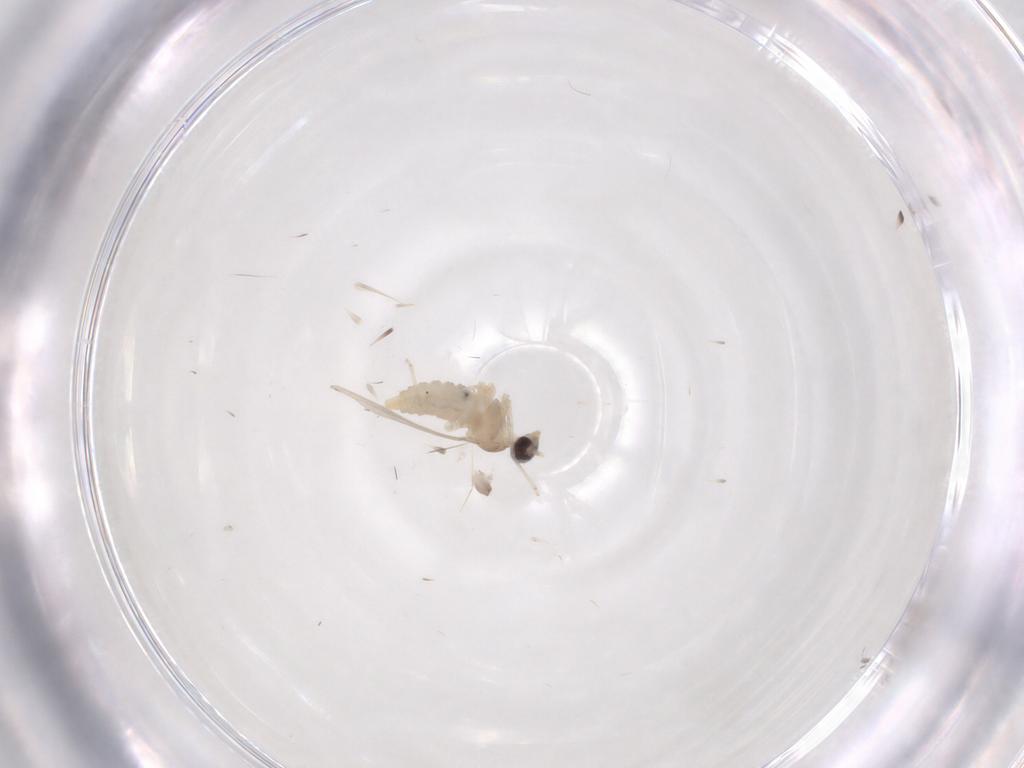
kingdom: Animalia
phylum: Arthropoda
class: Insecta
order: Diptera
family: Cecidomyiidae
